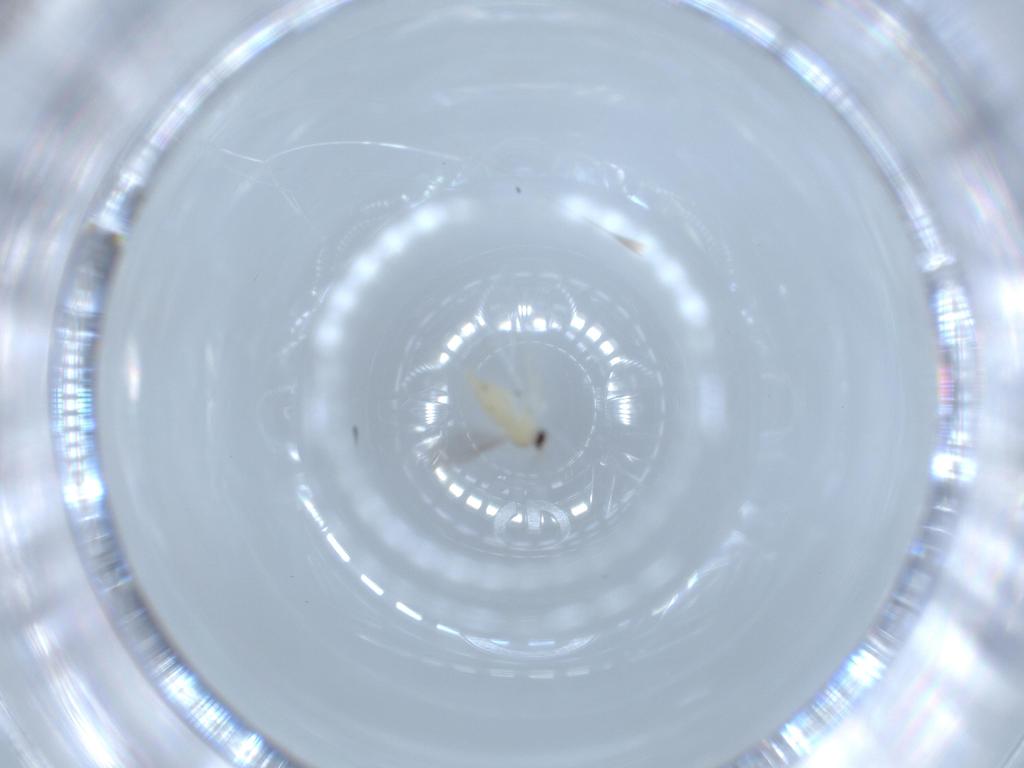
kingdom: Animalia
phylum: Arthropoda
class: Insecta
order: Diptera
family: Cecidomyiidae
